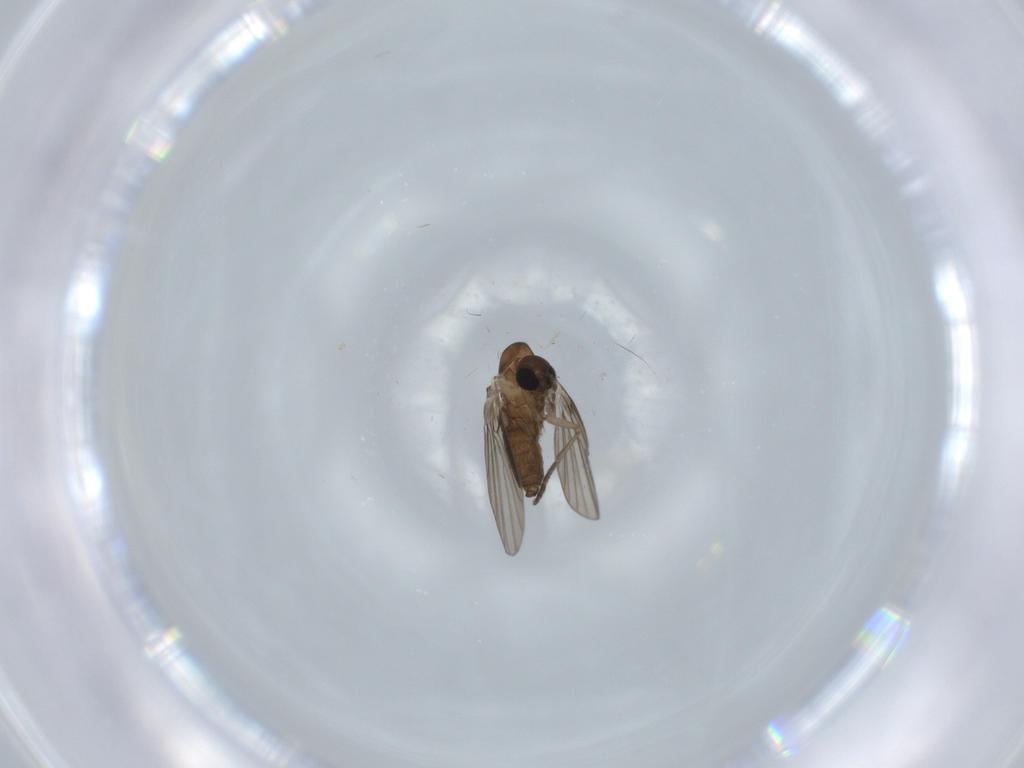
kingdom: Animalia
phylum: Arthropoda
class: Insecta
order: Diptera
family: Psychodidae
